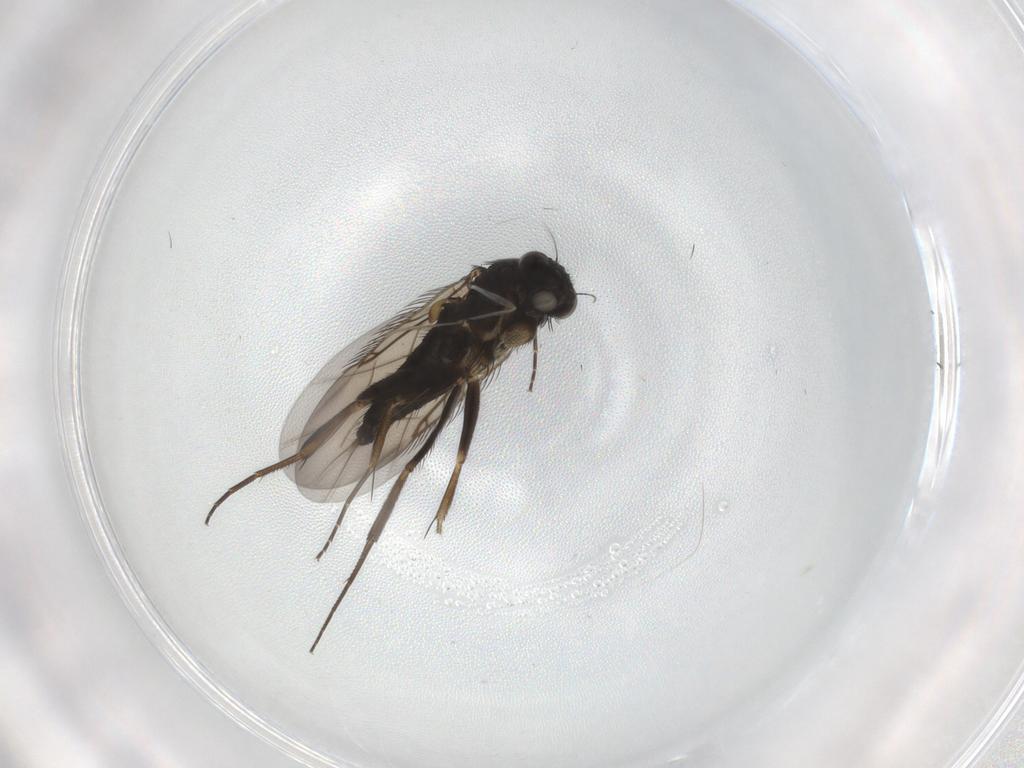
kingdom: Animalia
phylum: Arthropoda
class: Insecta
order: Diptera
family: Phoridae
